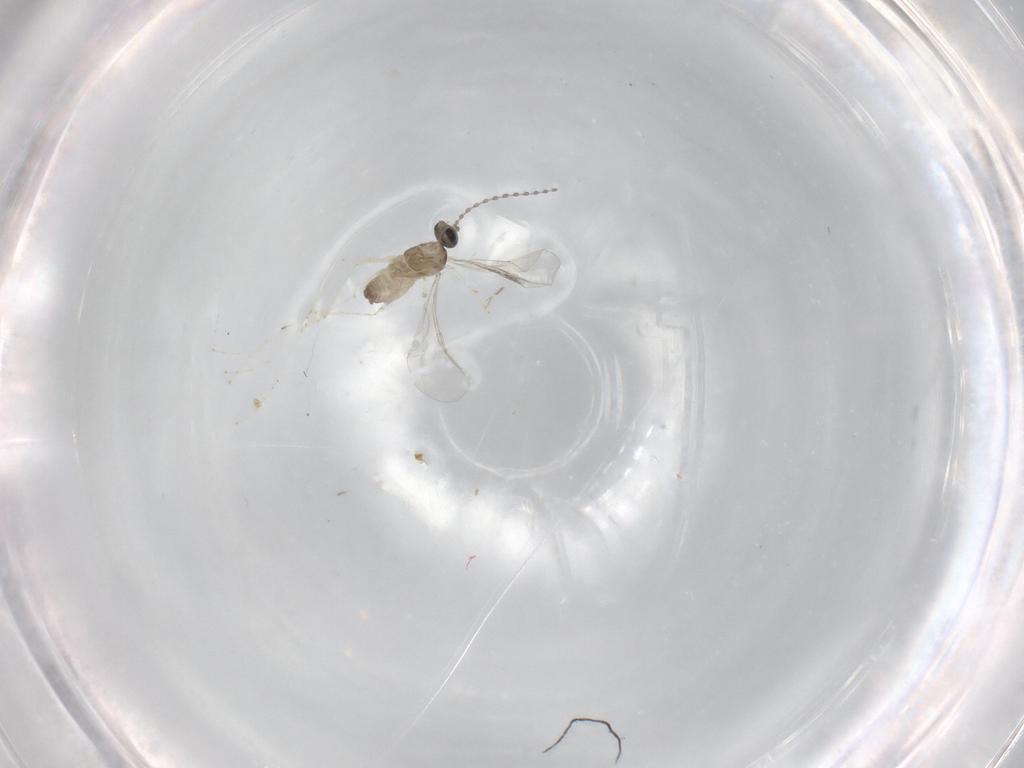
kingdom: Animalia
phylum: Arthropoda
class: Insecta
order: Diptera
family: Cecidomyiidae
